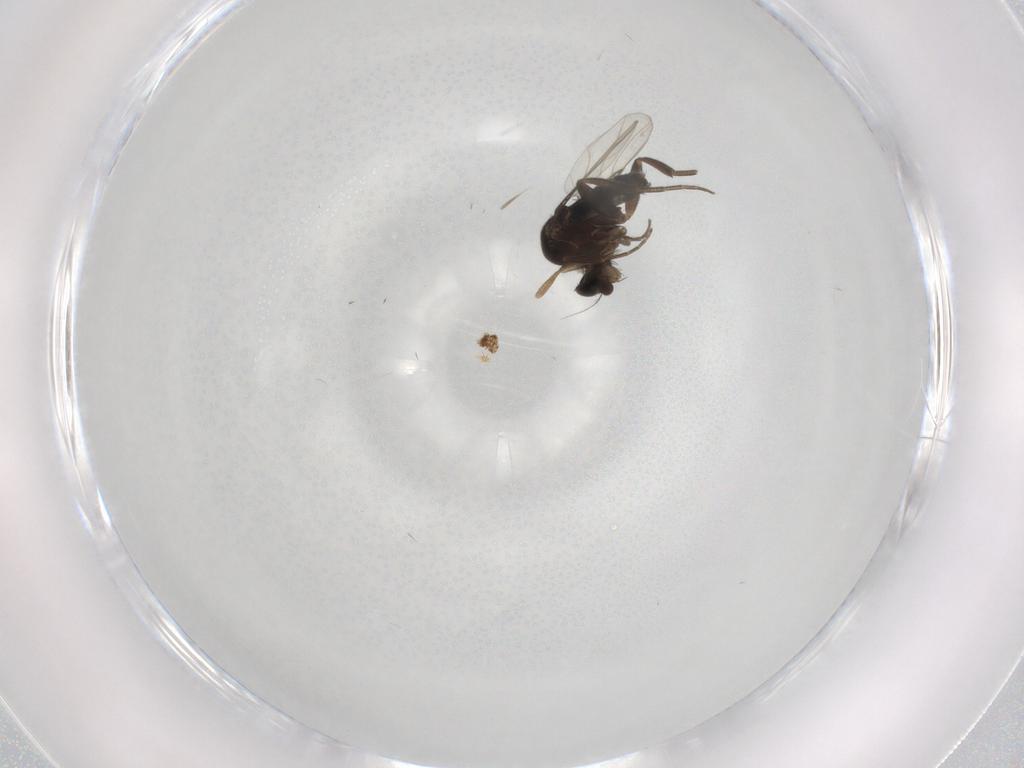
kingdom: Animalia
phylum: Arthropoda
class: Insecta
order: Diptera
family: Phoridae
